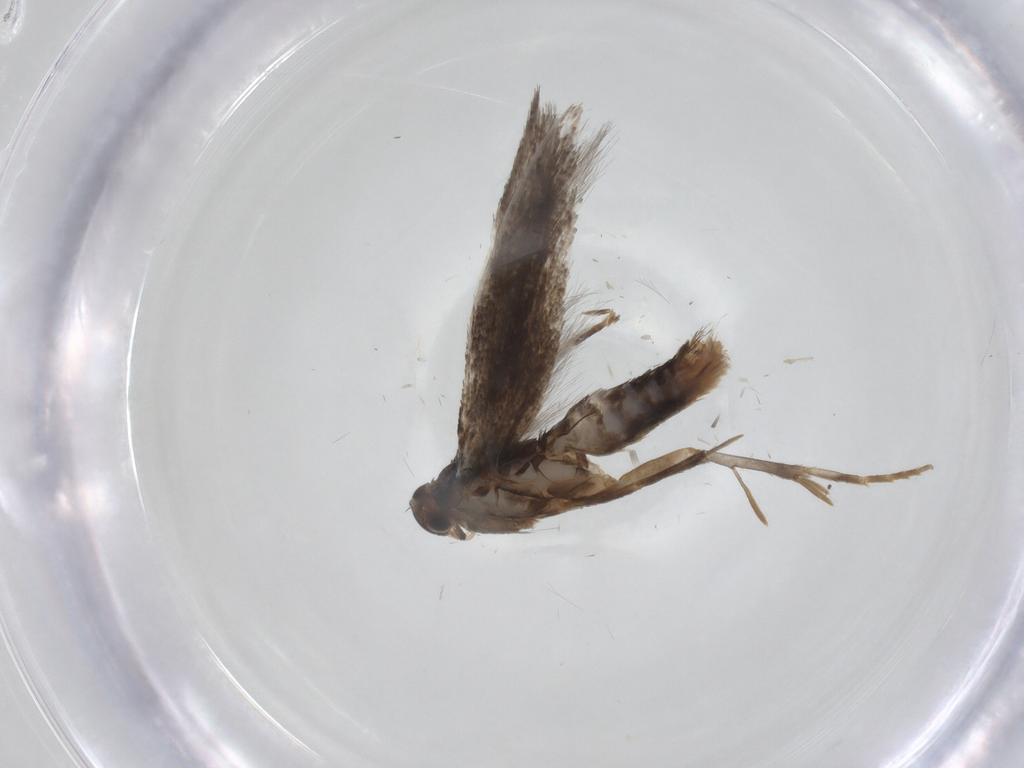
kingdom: Animalia
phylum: Arthropoda
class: Insecta
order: Lepidoptera
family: Elachistidae
